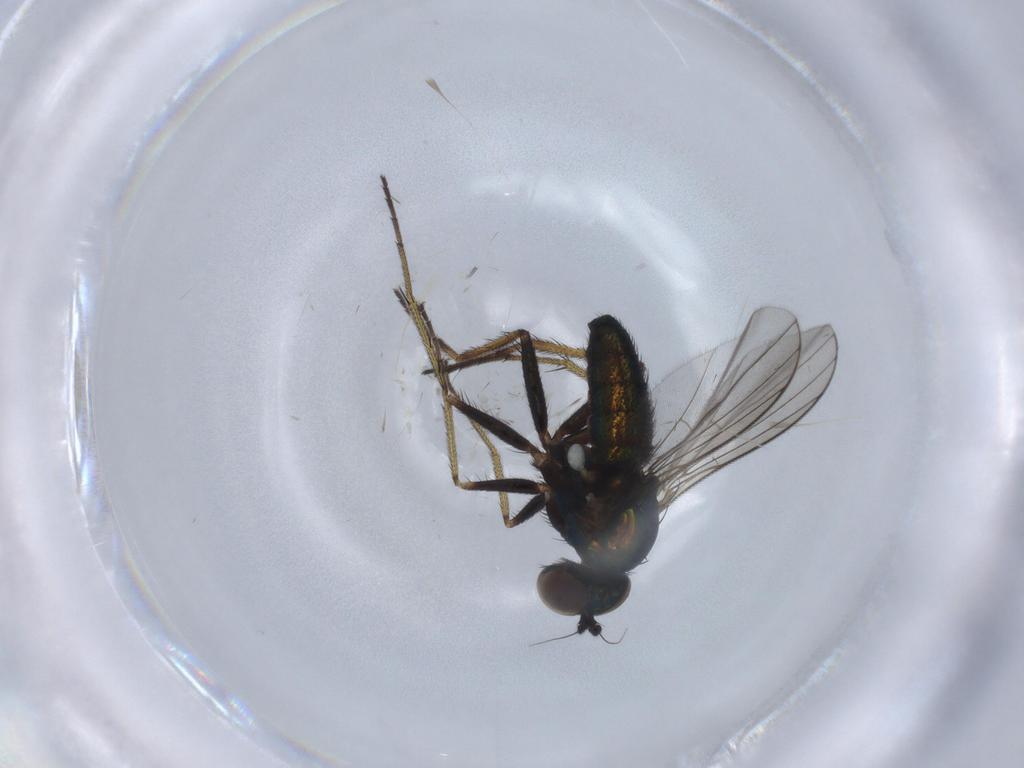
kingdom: Animalia
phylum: Arthropoda
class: Insecta
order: Diptera
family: Dolichopodidae
